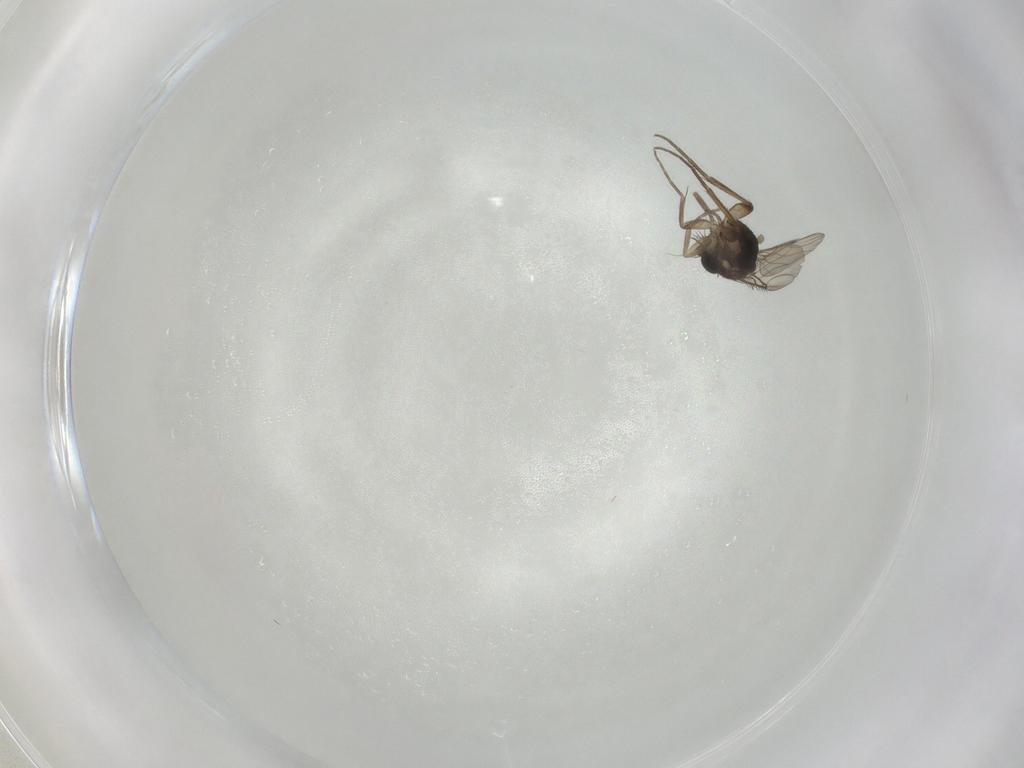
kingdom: Animalia
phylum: Arthropoda
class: Insecta
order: Diptera
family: Phoridae
